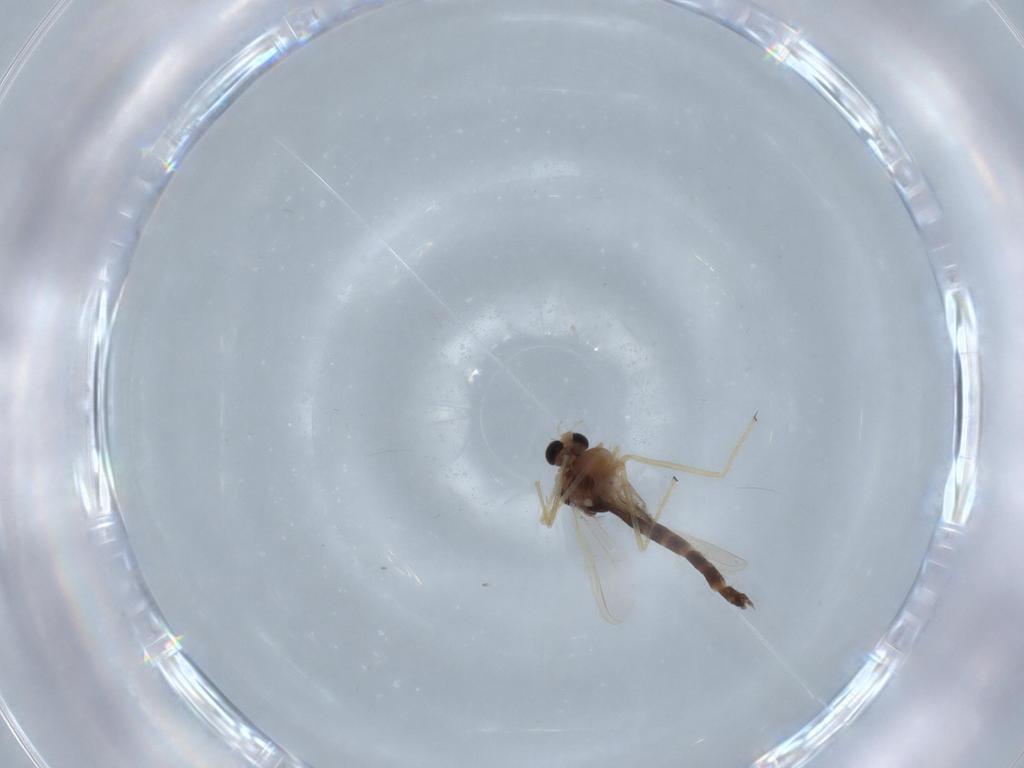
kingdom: Animalia
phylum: Arthropoda
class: Insecta
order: Diptera
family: Chironomidae
